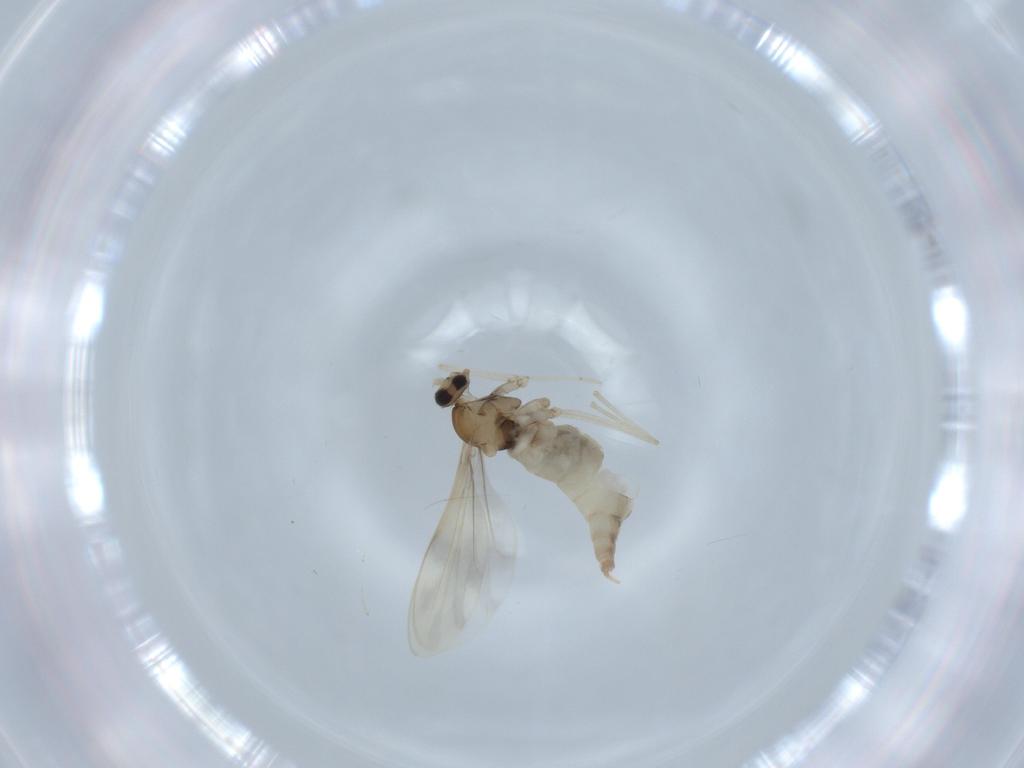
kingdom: Animalia
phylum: Arthropoda
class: Insecta
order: Diptera
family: Cecidomyiidae
